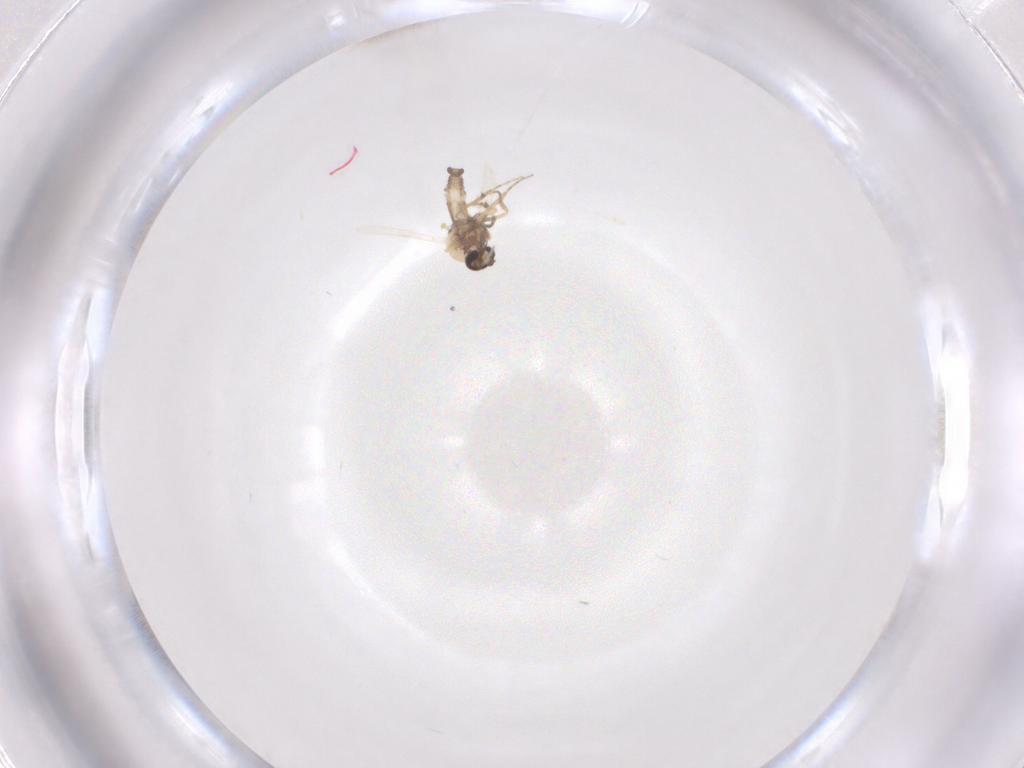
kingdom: Animalia
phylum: Arthropoda
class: Insecta
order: Diptera
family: Ceratopogonidae
